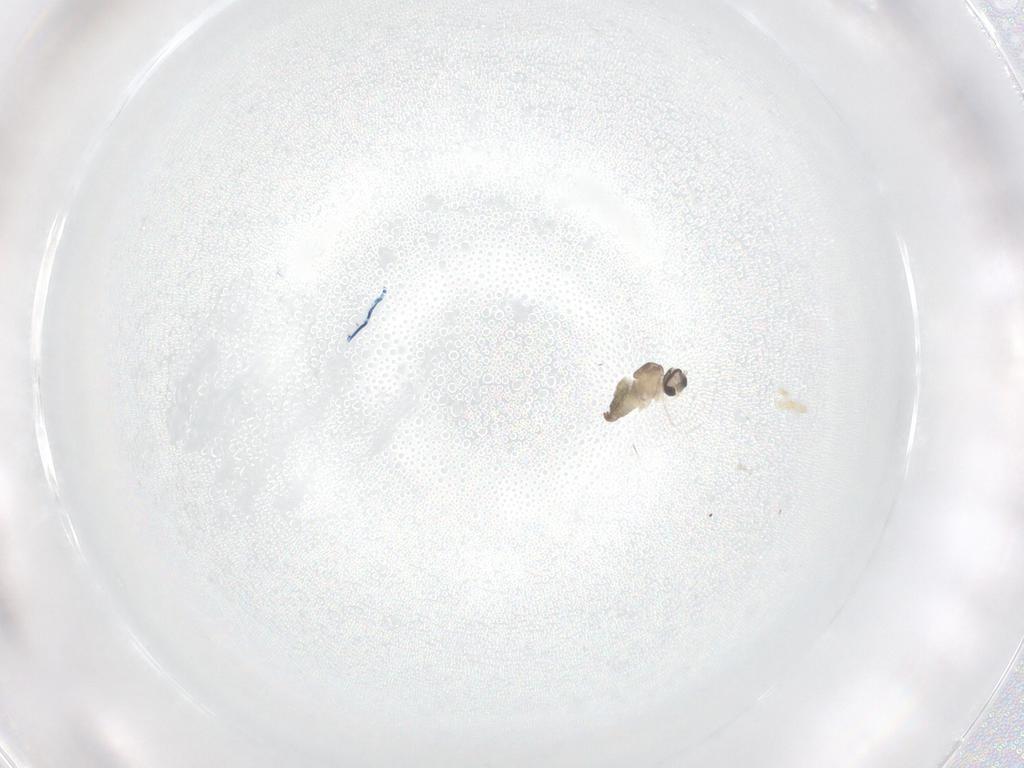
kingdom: Animalia
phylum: Arthropoda
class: Insecta
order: Diptera
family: Cecidomyiidae
